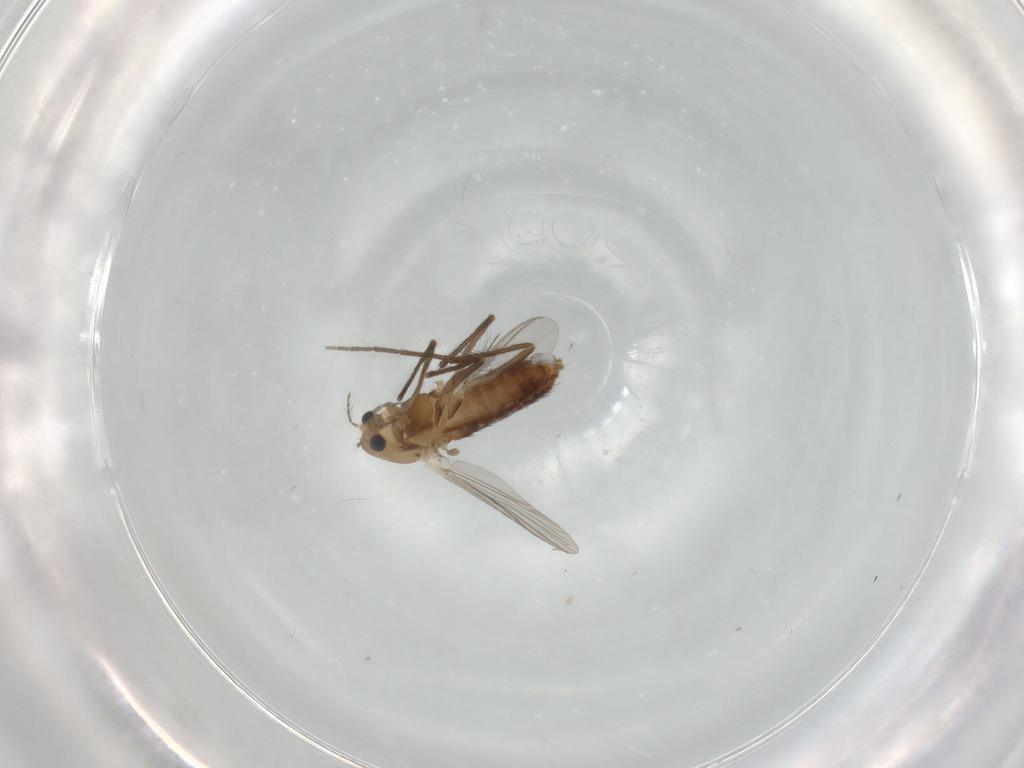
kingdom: Animalia
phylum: Arthropoda
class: Insecta
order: Diptera
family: Chironomidae
